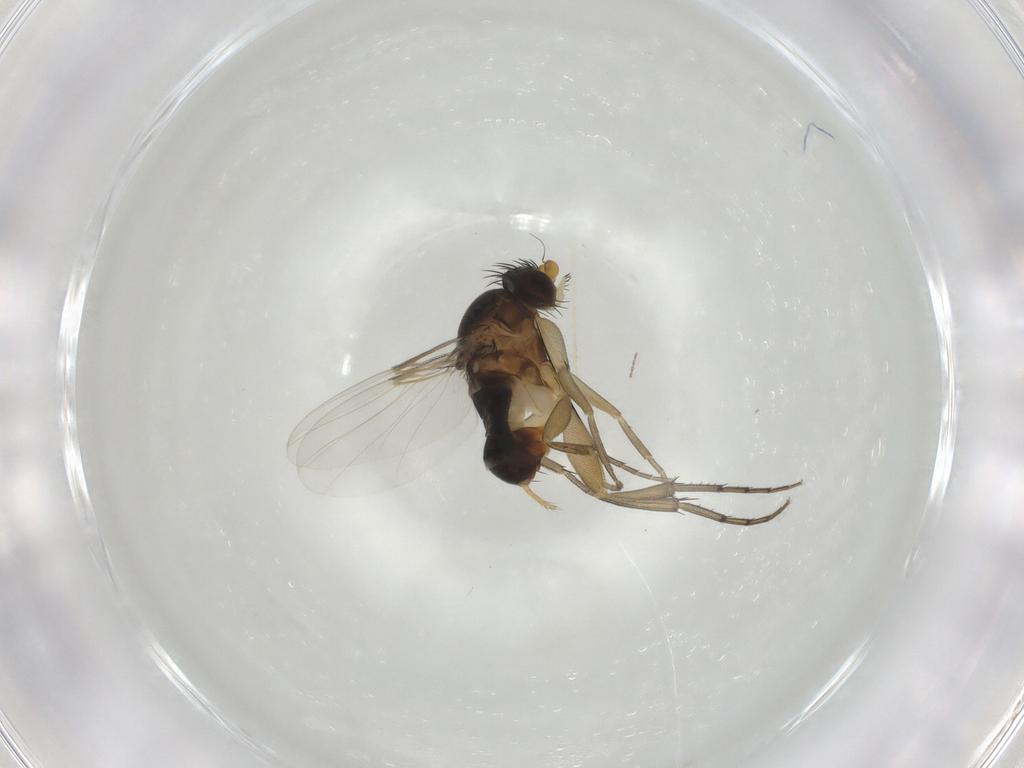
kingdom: Animalia
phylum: Arthropoda
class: Insecta
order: Diptera
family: Phoridae
